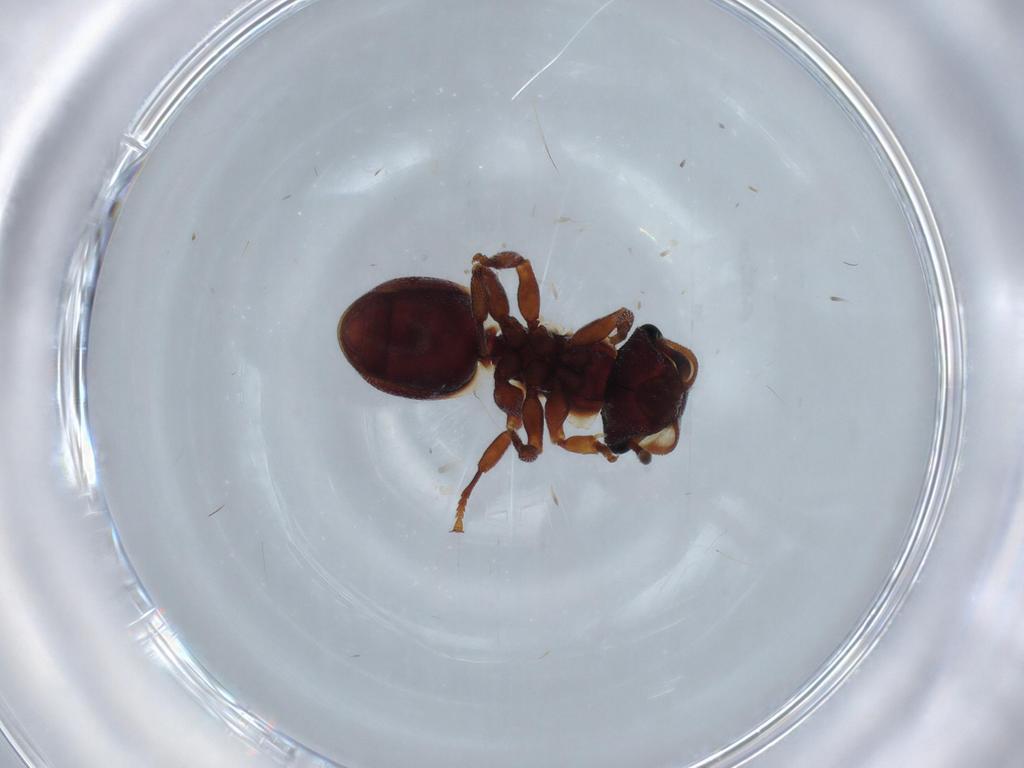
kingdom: Animalia
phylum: Arthropoda
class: Insecta
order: Hymenoptera
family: Formicidae
